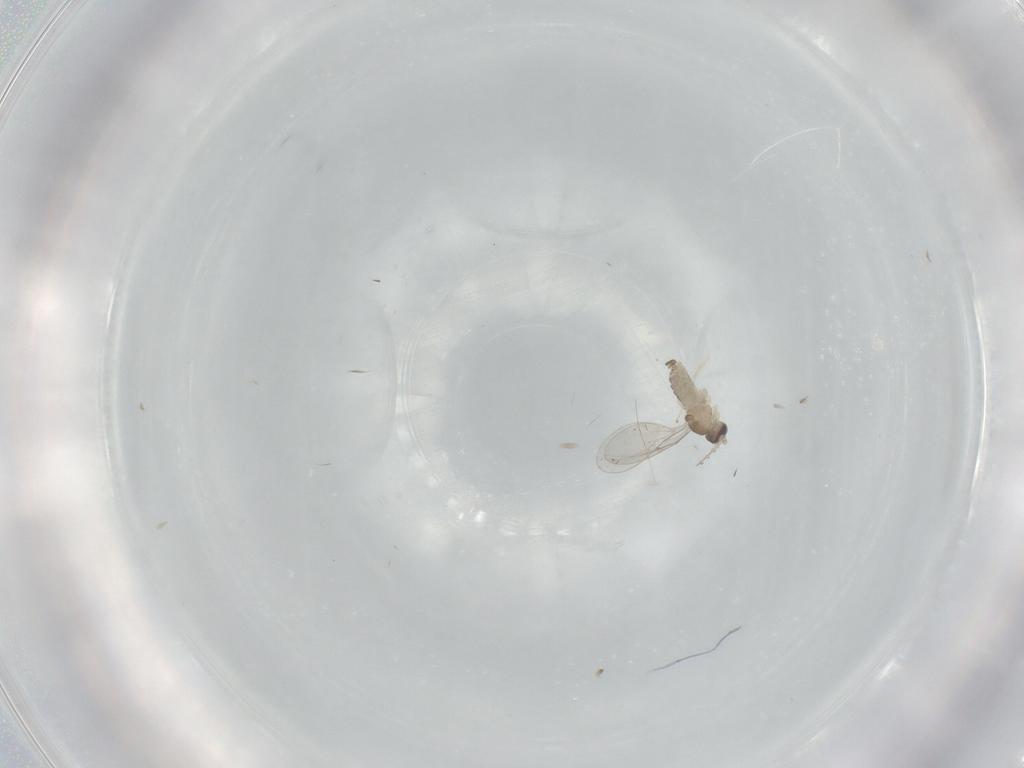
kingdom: Animalia
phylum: Arthropoda
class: Insecta
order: Diptera
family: Cecidomyiidae
